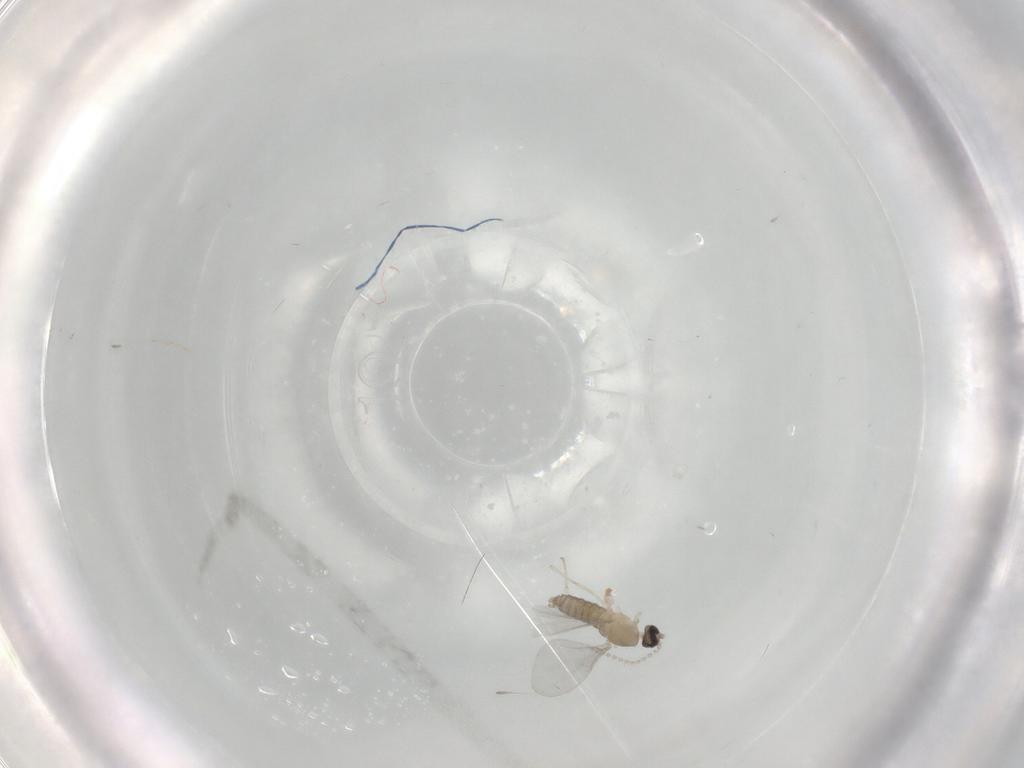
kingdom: Animalia
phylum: Arthropoda
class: Insecta
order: Diptera
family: Cecidomyiidae
